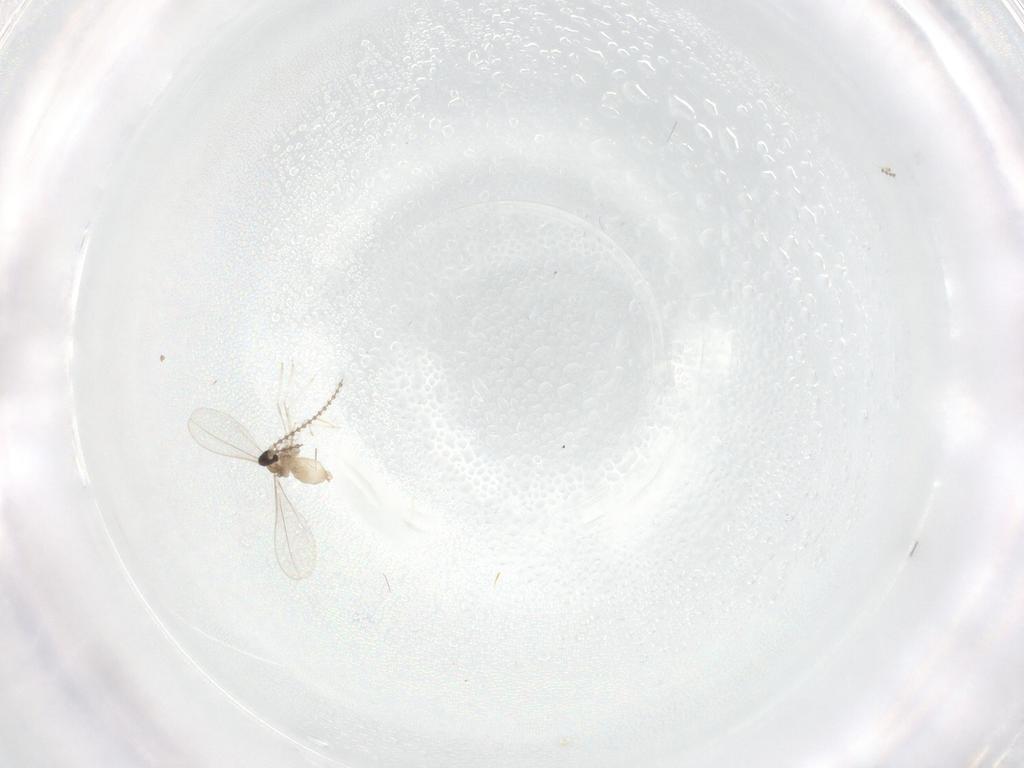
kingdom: Animalia
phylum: Arthropoda
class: Insecta
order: Diptera
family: Cecidomyiidae
